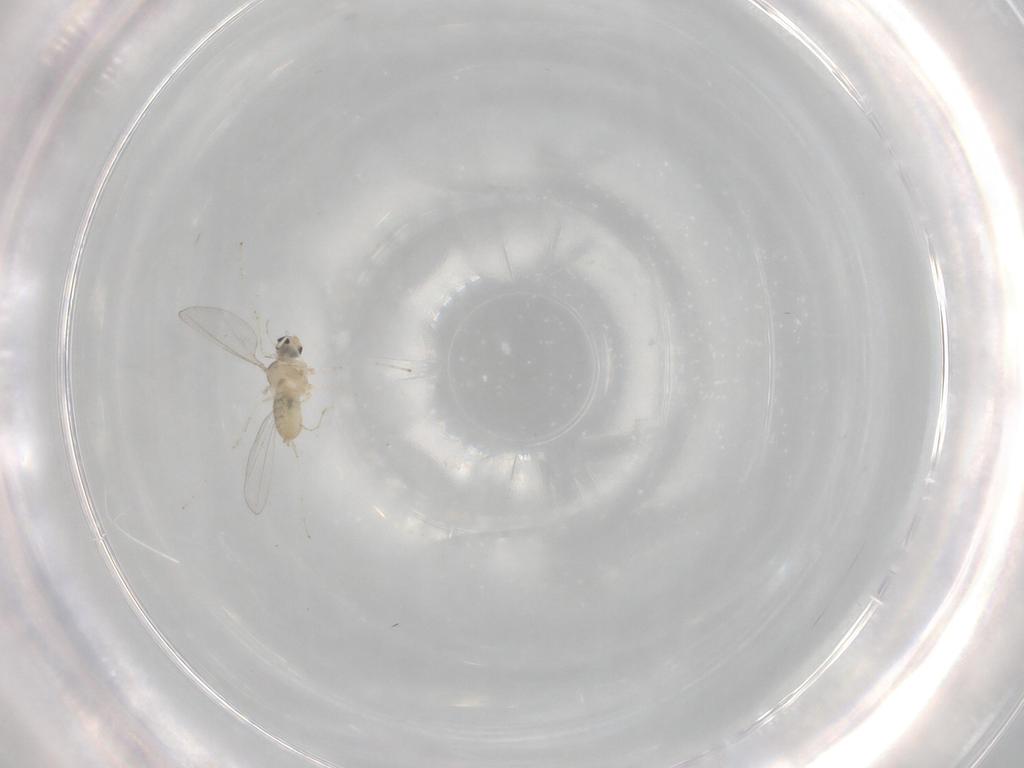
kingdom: Animalia
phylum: Arthropoda
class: Insecta
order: Diptera
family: Cecidomyiidae
